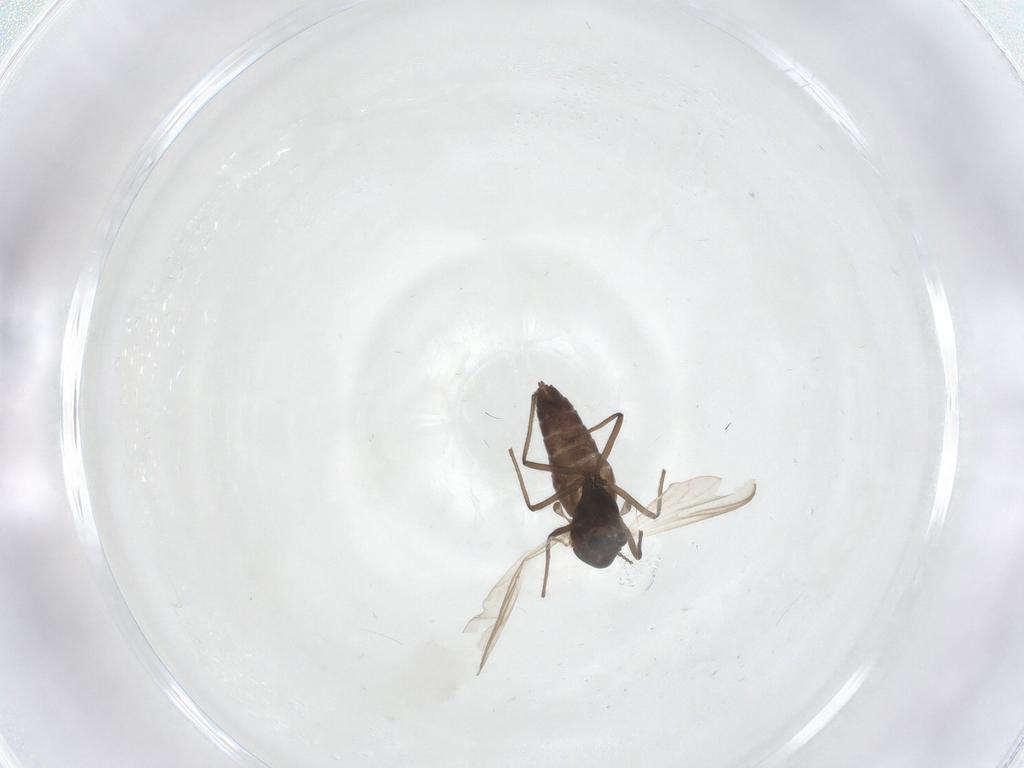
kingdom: Animalia
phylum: Arthropoda
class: Insecta
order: Diptera
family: Chironomidae
